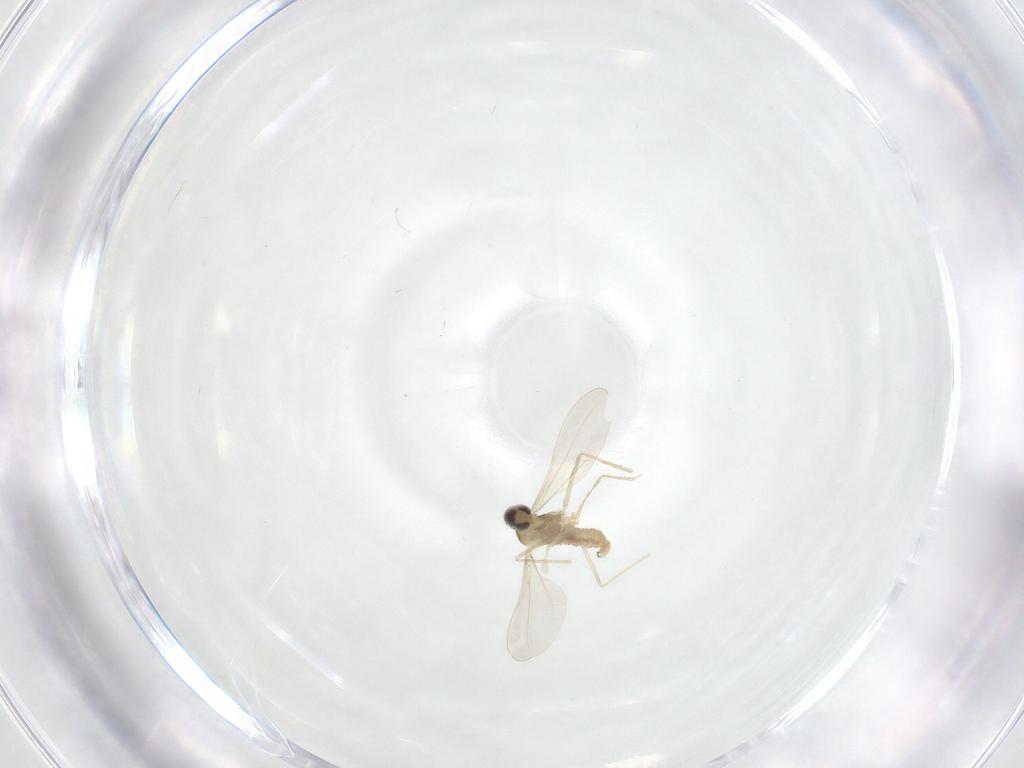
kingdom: Animalia
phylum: Arthropoda
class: Insecta
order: Diptera
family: Cecidomyiidae
